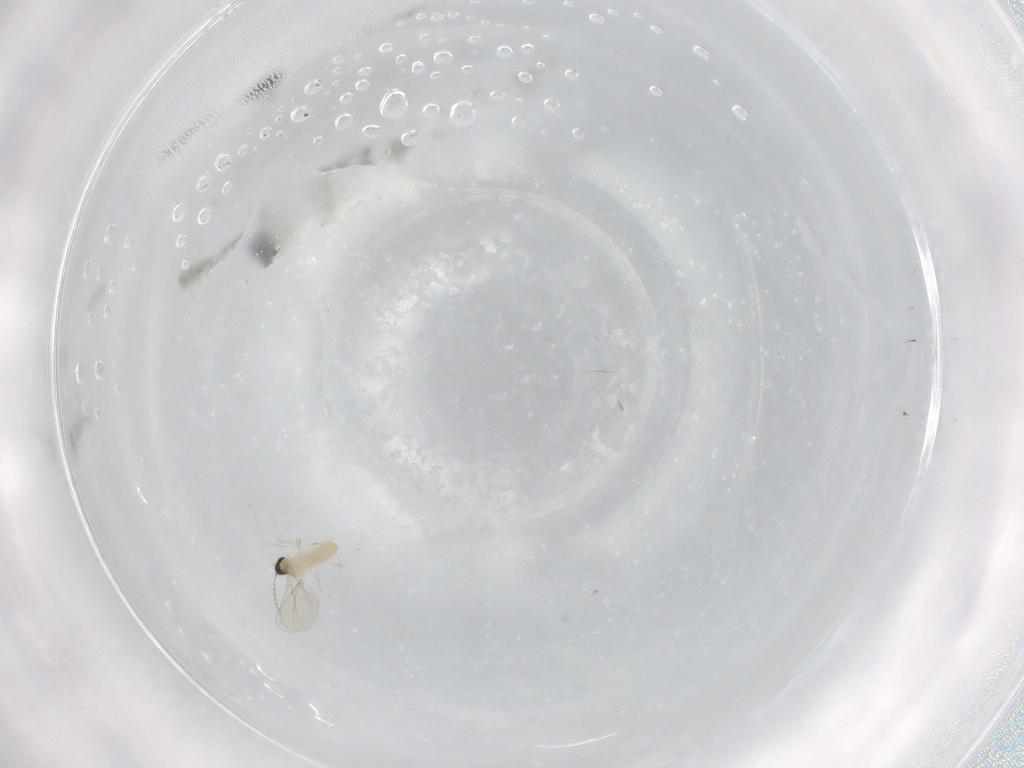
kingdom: Animalia
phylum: Arthropoda
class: Insecta
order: Diptera
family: Cecidomyiidae
